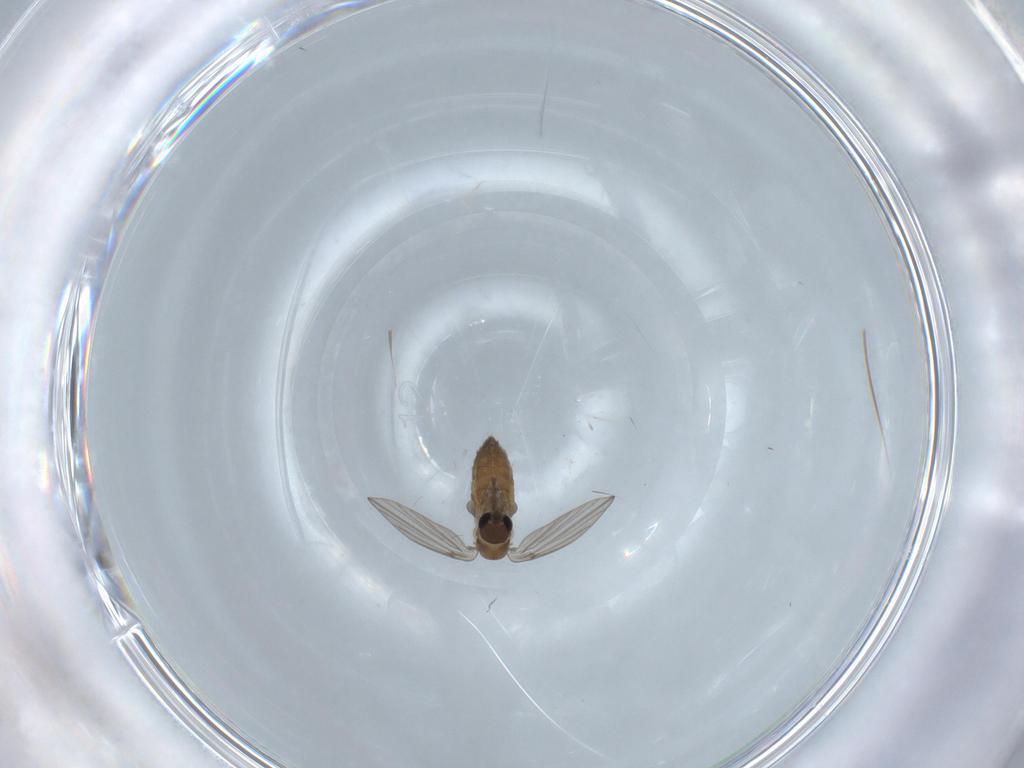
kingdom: Animalia
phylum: Arthropoda
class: Insecta
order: Diptera
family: Psychodidae
